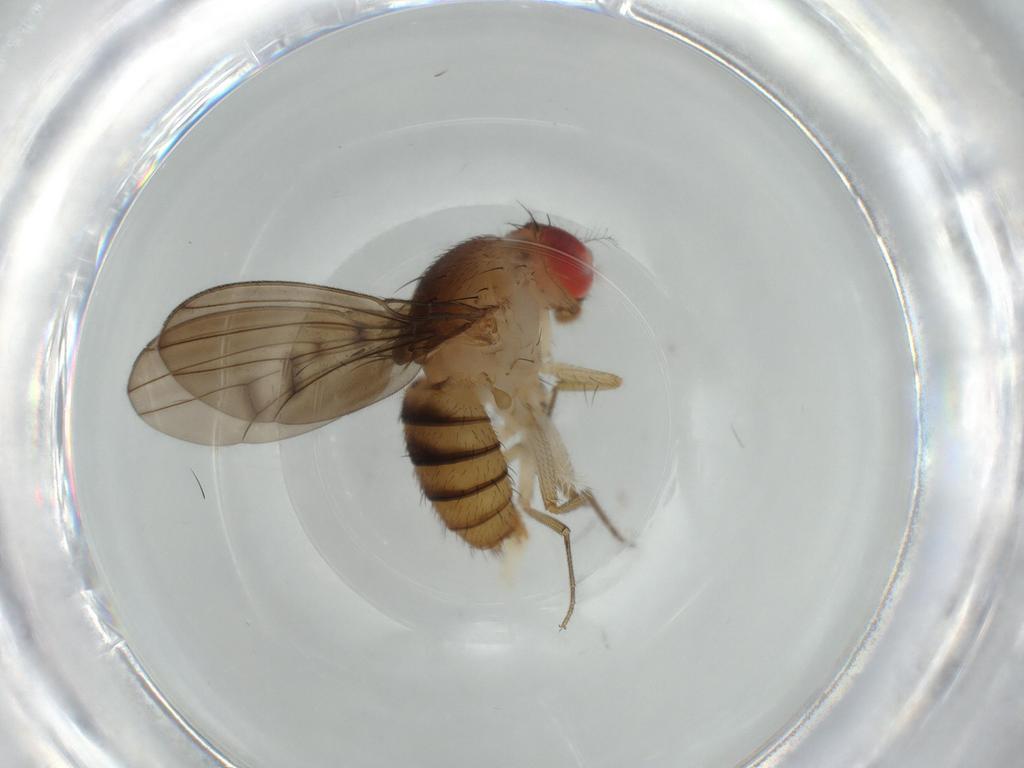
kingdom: Animalia
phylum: Arthropoda
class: Insecta
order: Diptera
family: Drosophilidae
